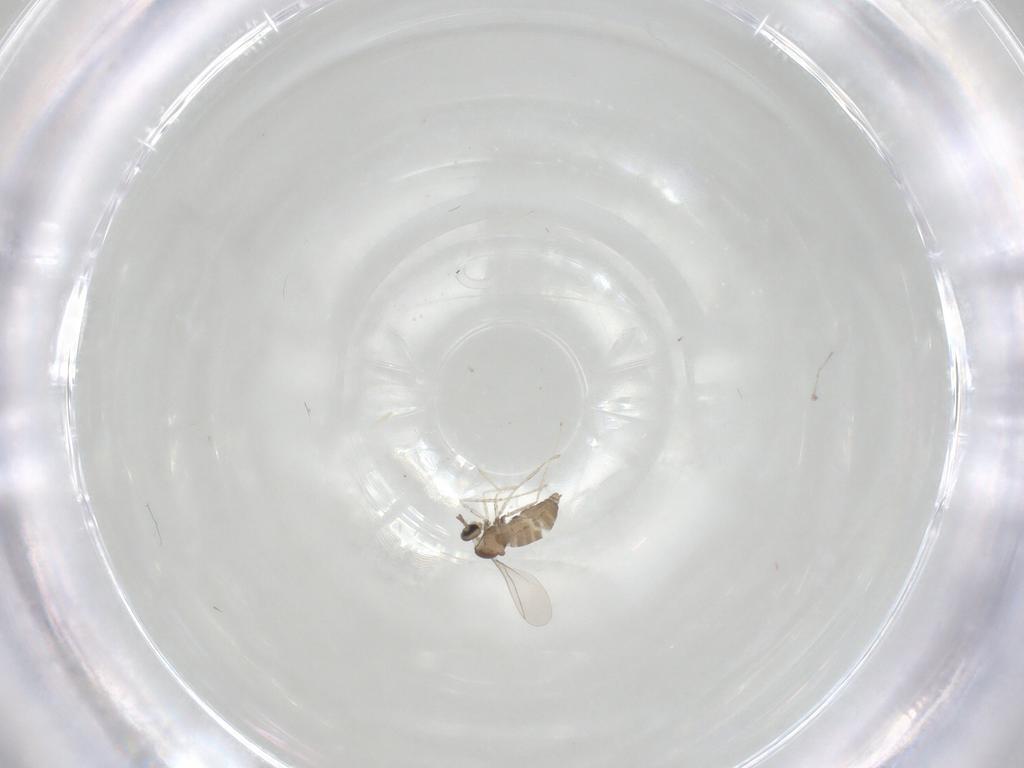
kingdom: Animalia
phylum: Arthropoda
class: Insecta
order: Diptera
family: Cecidomyiidae
